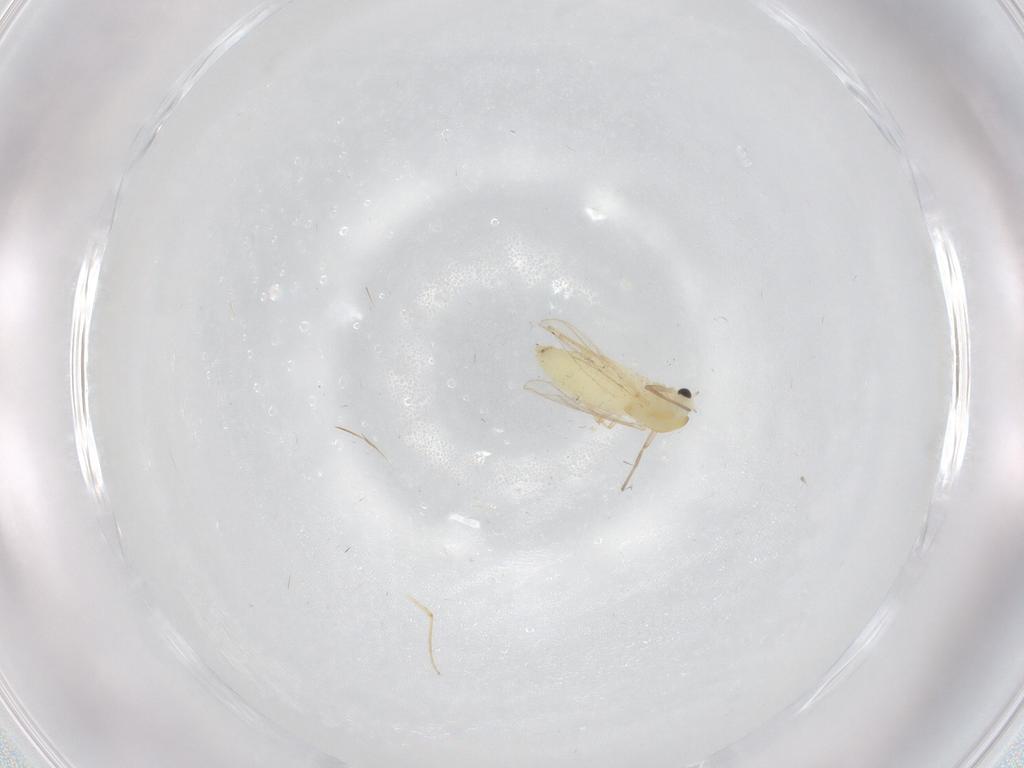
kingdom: Animalia
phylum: Arthropoda
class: Insecta
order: Diptera
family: Chironomidae
